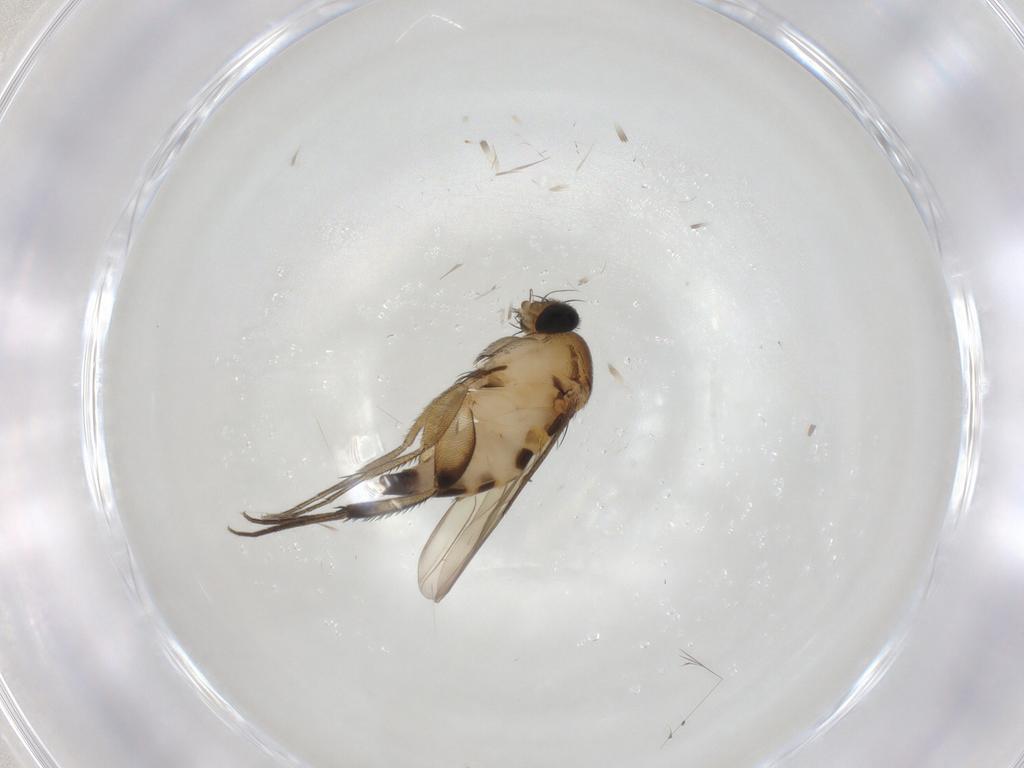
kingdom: Animalia
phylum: Arthropoda
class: Insecta
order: Diptera
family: Phoridae
